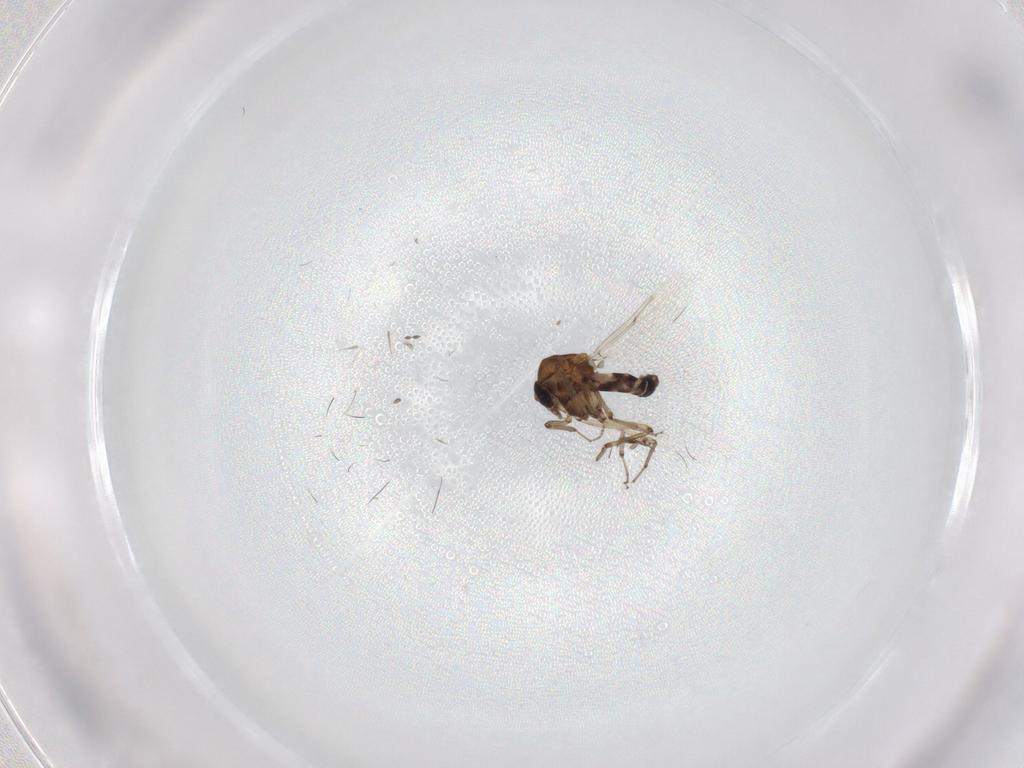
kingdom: Animalia
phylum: Arthropoda
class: Insecta
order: Diptera
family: Ceratopogonidae
